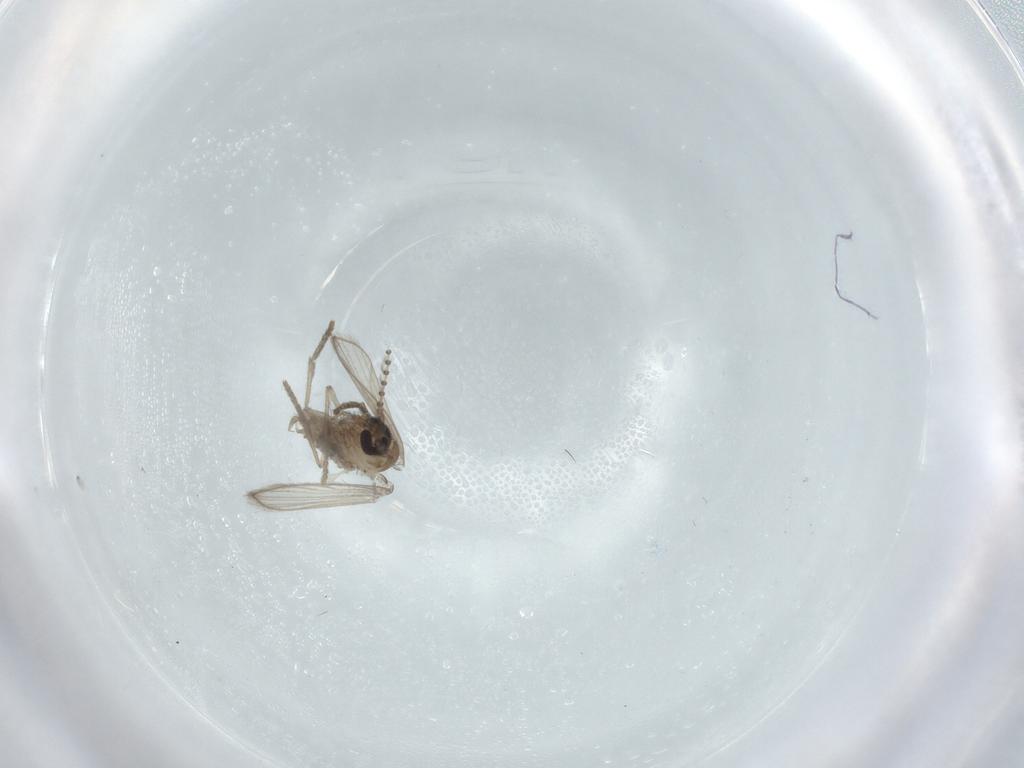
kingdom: Animalia
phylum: Arthropoda
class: Insecta
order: Diptera
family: Psychodidae
